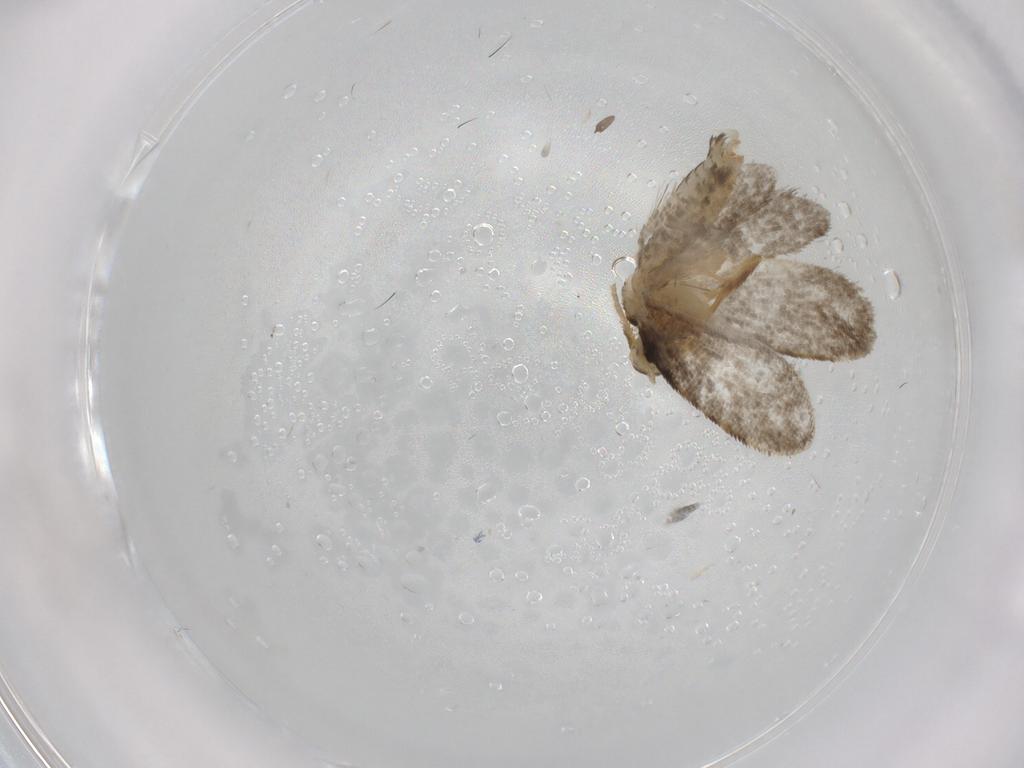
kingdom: Animalia
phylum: Arthropoda
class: Insecta
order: Lepidoptera
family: Psychidae
